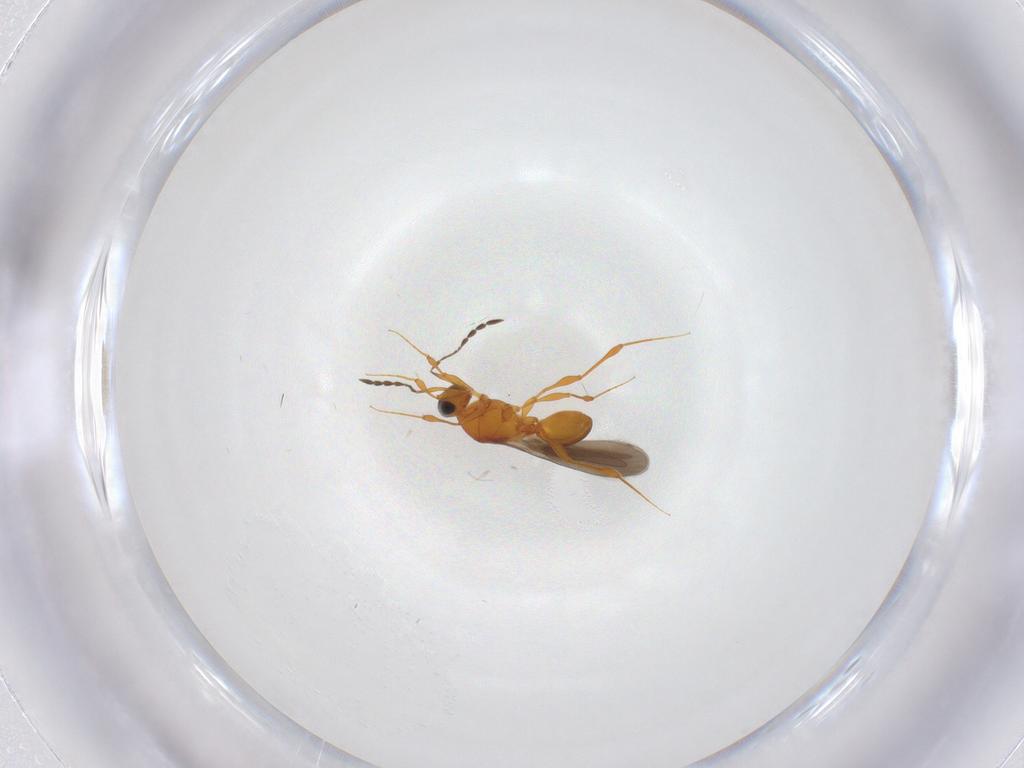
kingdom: Animalia
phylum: Arthropoda
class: Insecta
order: Hymenoptera
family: Platygastridae
